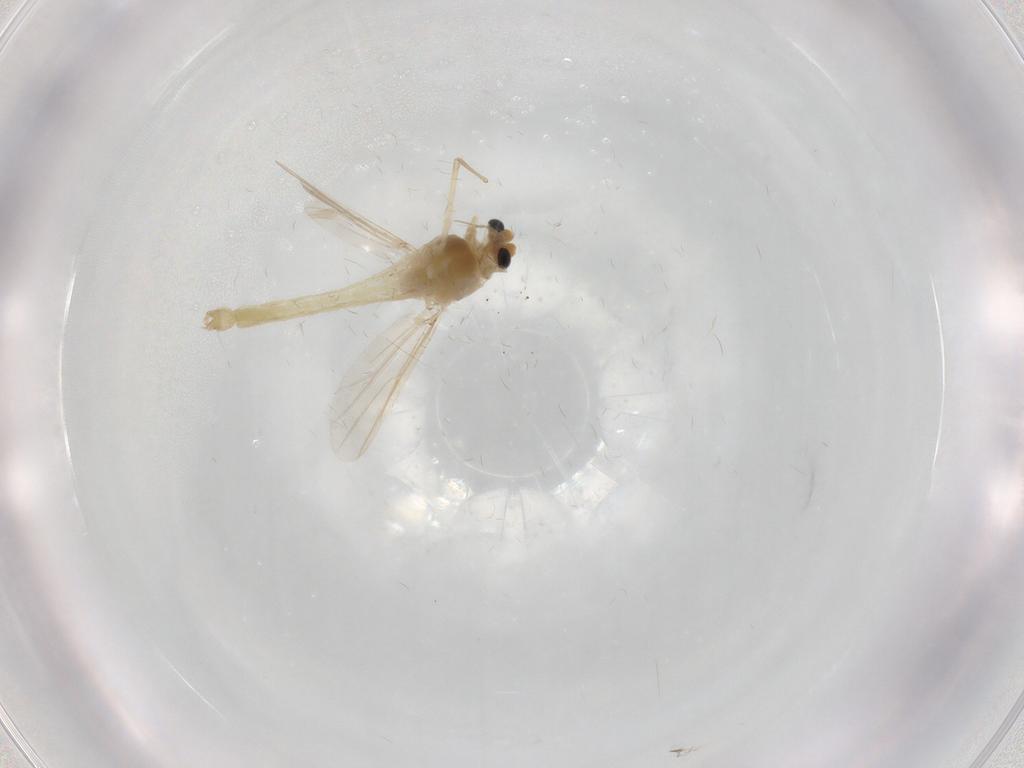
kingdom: Animalia
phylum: Arthropoda
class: Insecta
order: Diptera
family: Chironomidae
